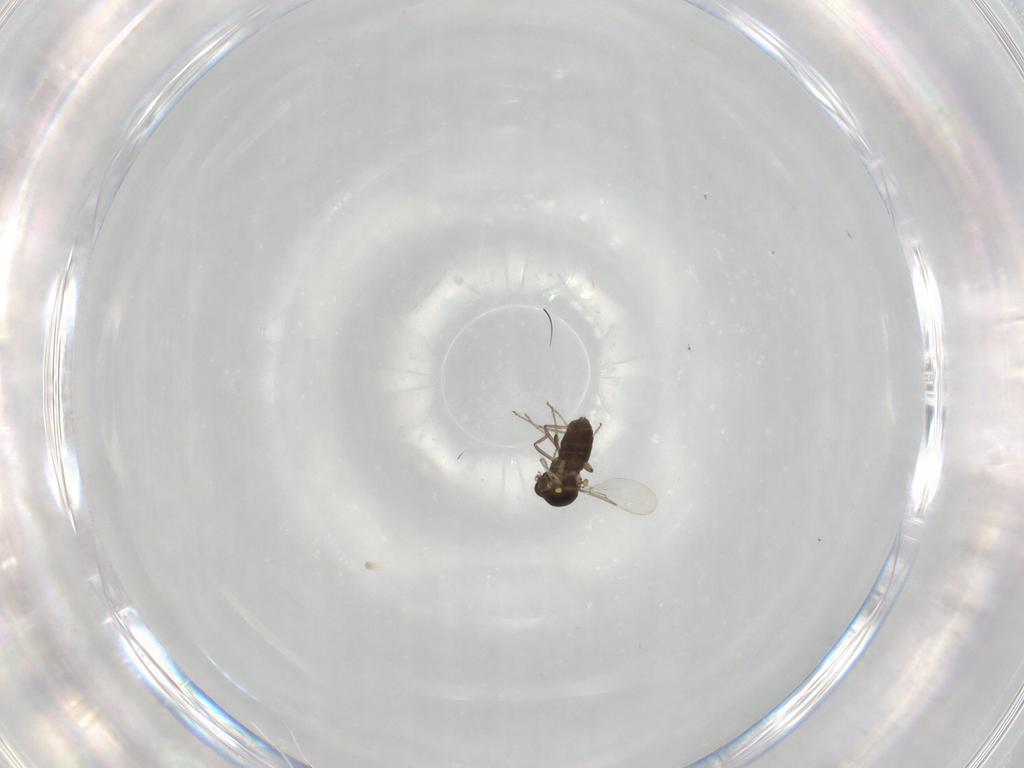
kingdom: Animalia
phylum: Arthropoda
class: Insecta
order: Diptera
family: Ceratopogonidae
